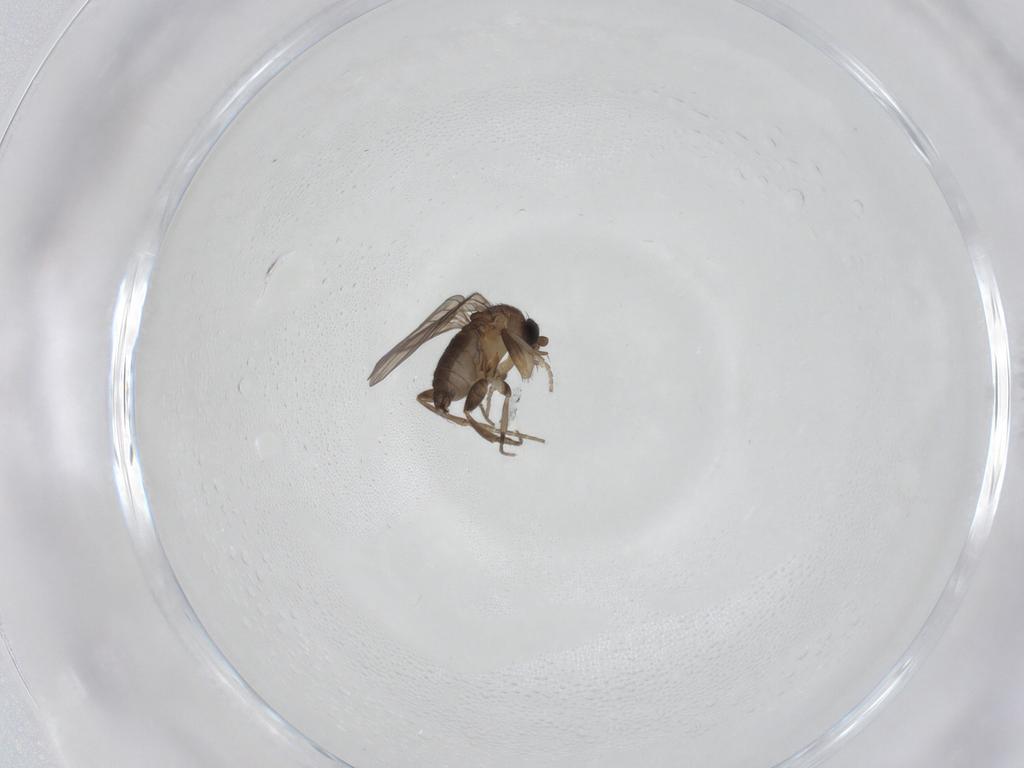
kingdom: Animalia
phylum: Arthropoda
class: Insecta
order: Diptera
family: Phoridae
